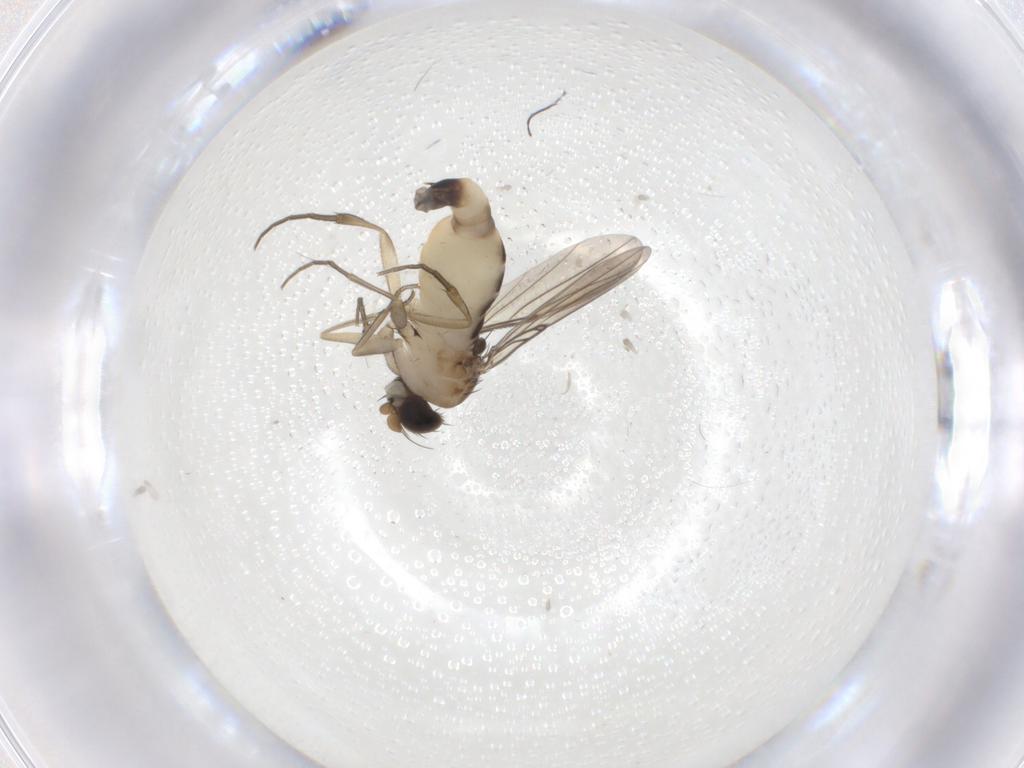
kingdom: Animalia
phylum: Arthropoda
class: Insecta
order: Diptera
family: Phoridae
